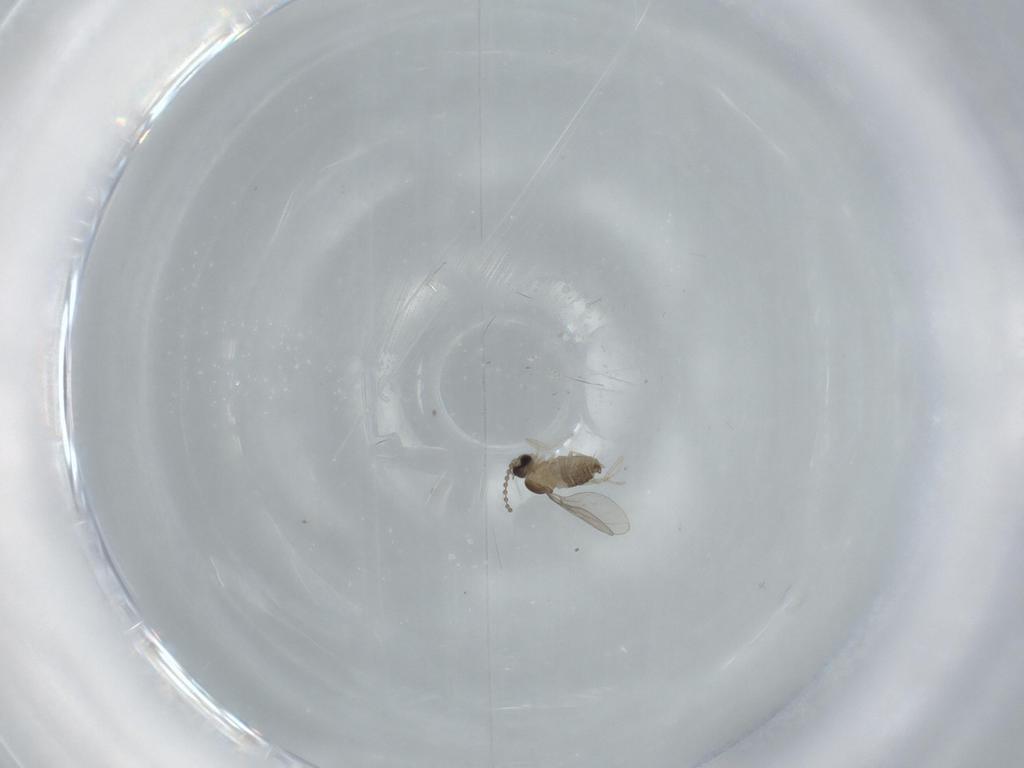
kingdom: Animalia
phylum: Arthropoda
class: Insecta
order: Diptera
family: Cecidomyiidae
